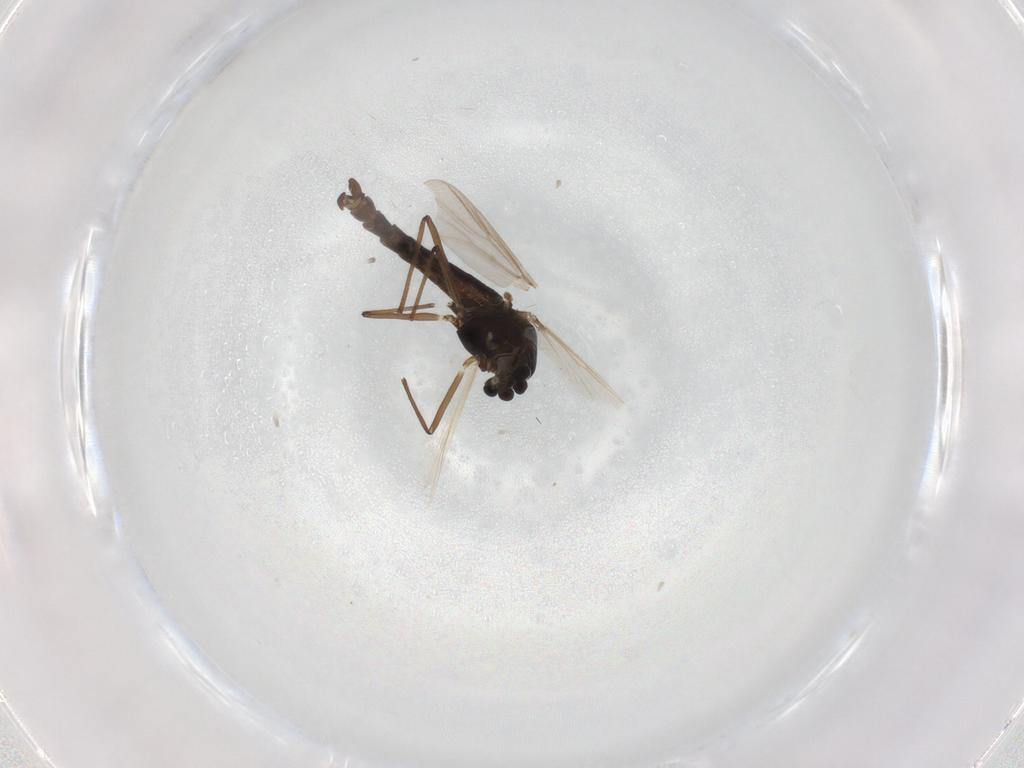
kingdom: Animalia
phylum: Arthropoda
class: Insecta
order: Diptera
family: Chironomidae
